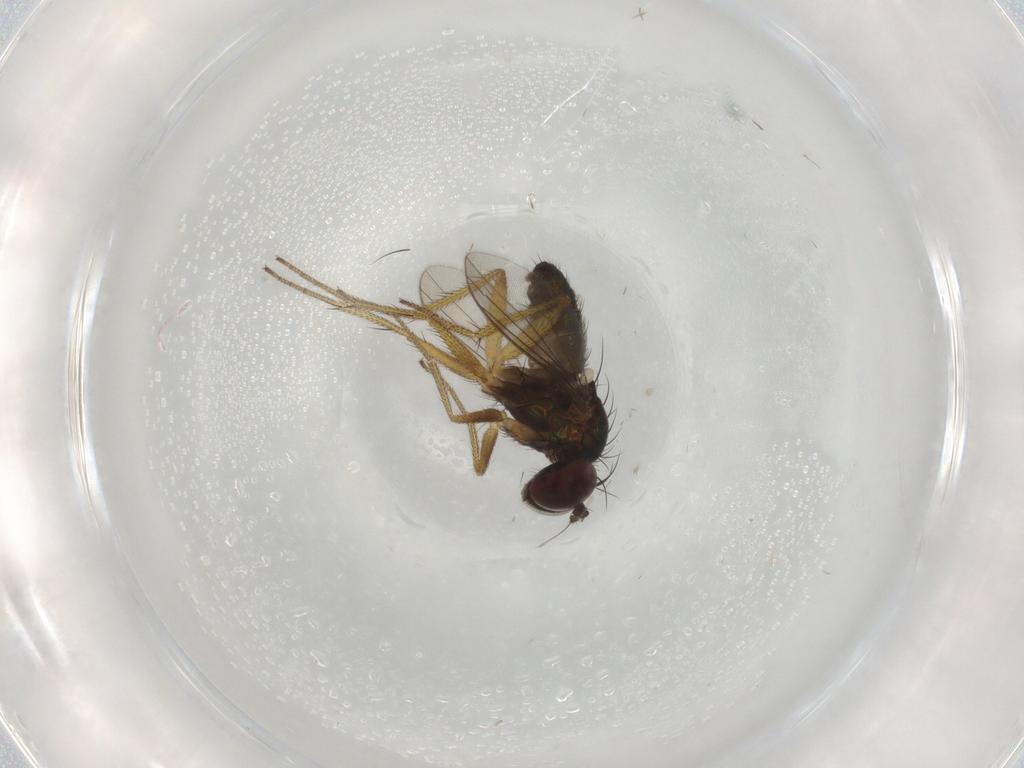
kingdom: Animalia
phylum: Arthropoda
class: Insecta
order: Diptera
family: Dolichopodidae
